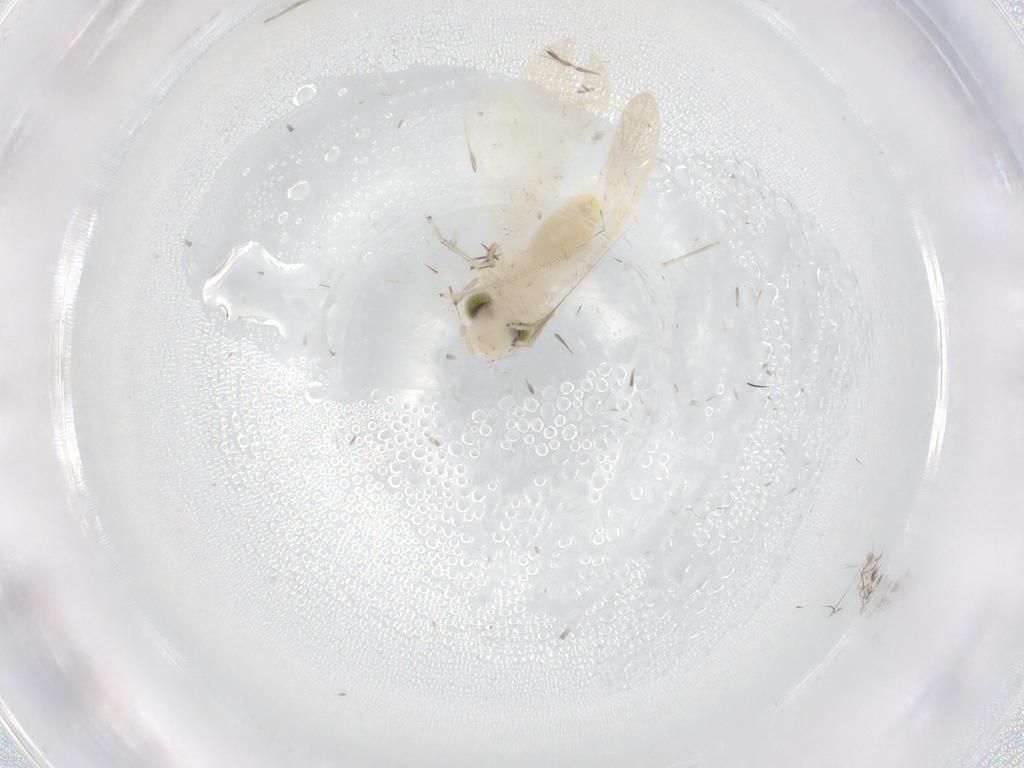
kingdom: Animalia
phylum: Arthropoda
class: Insecta
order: Psocodea
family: Caeciliusidae
